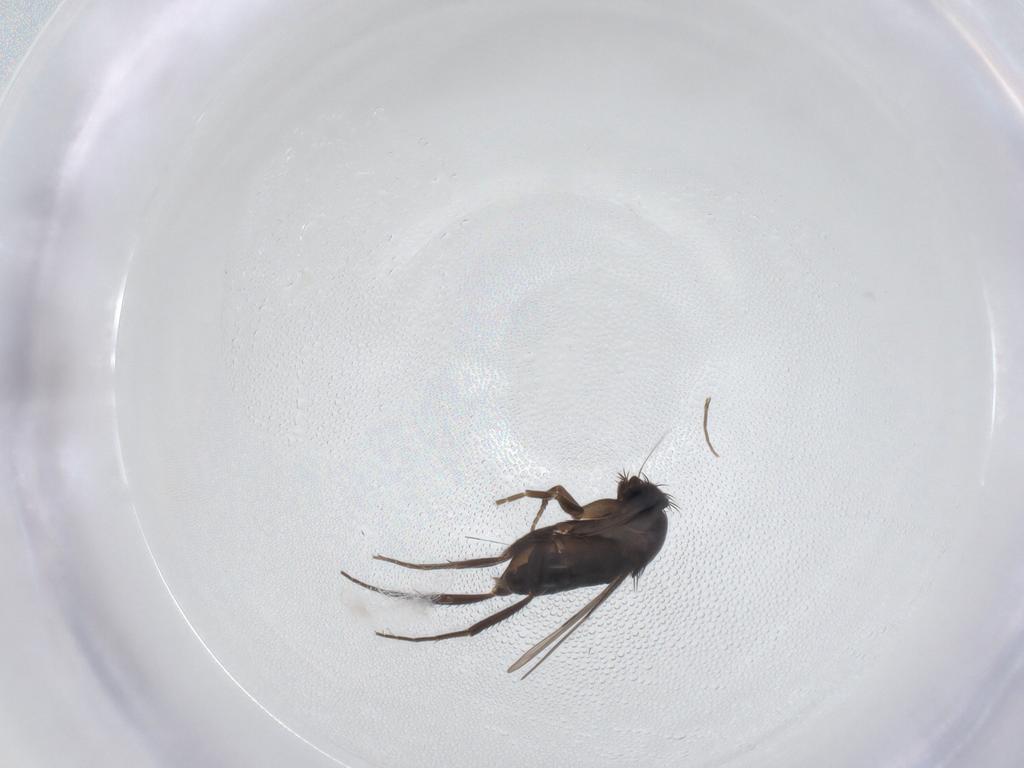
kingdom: Animalia
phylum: Arthropoda
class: Insecta
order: Diptera
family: Phoridae
